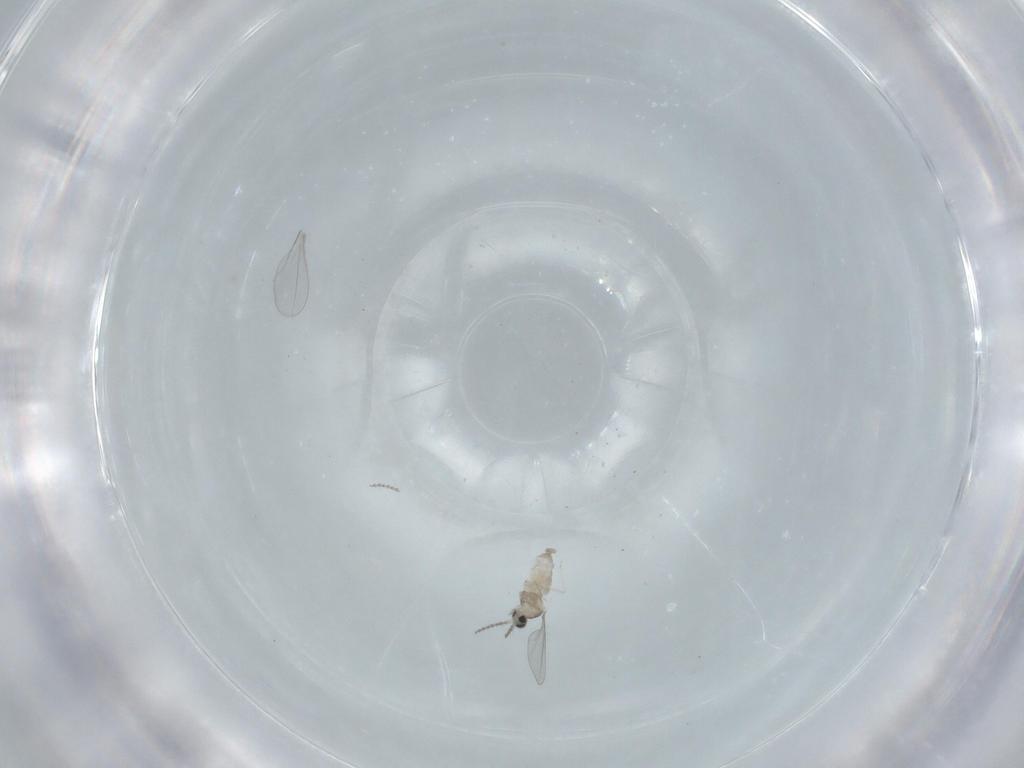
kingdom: Animalia
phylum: Arthropoda
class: Insecta
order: Diptera
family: Cecidomyiidae
